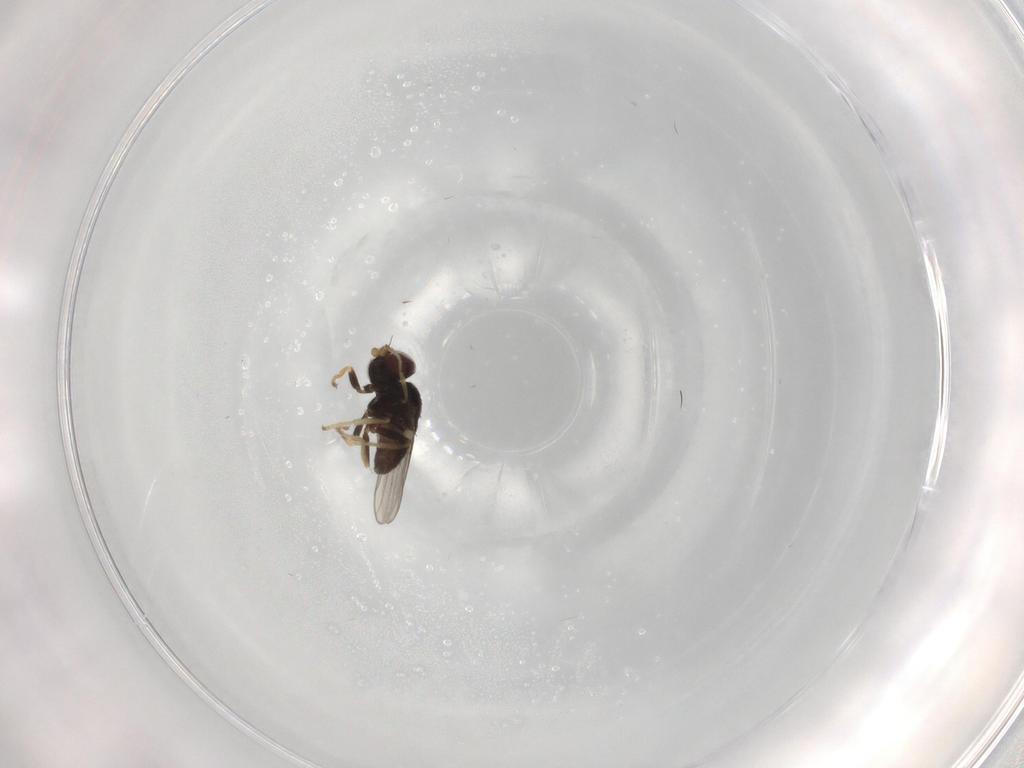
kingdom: Animalia
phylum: Arthropoda
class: Insecta
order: Diptera
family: Chloropidae
